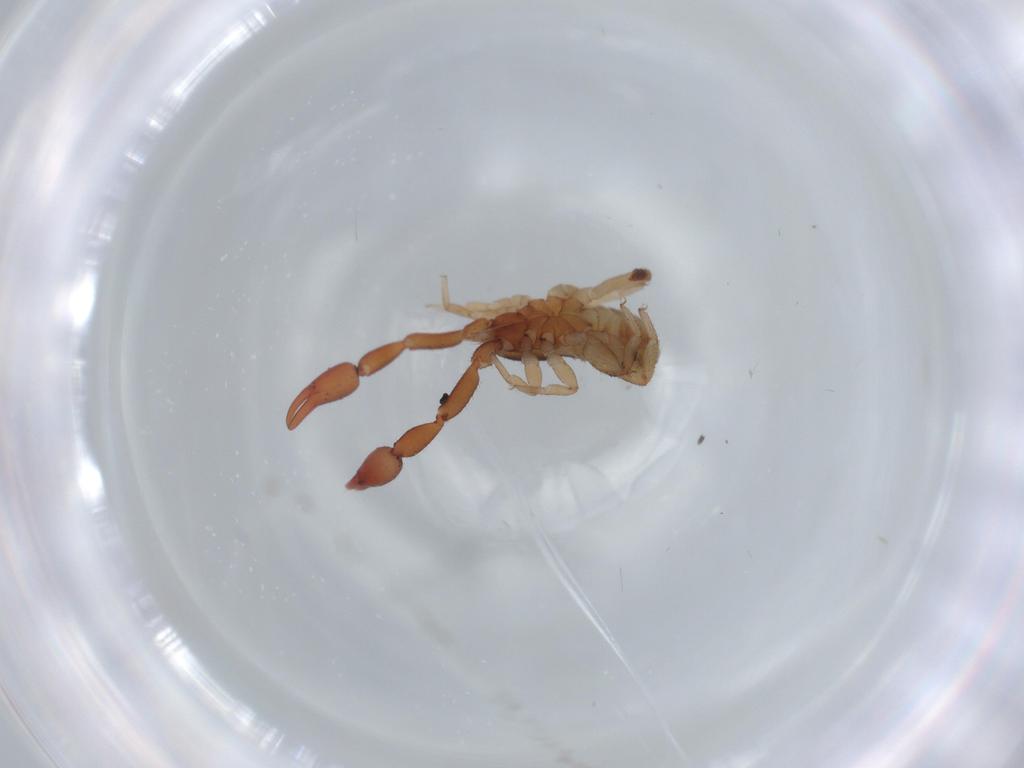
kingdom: Animalia
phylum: Arthropoda
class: Arachnida
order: Pseudoscorpiones
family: Withiidae
